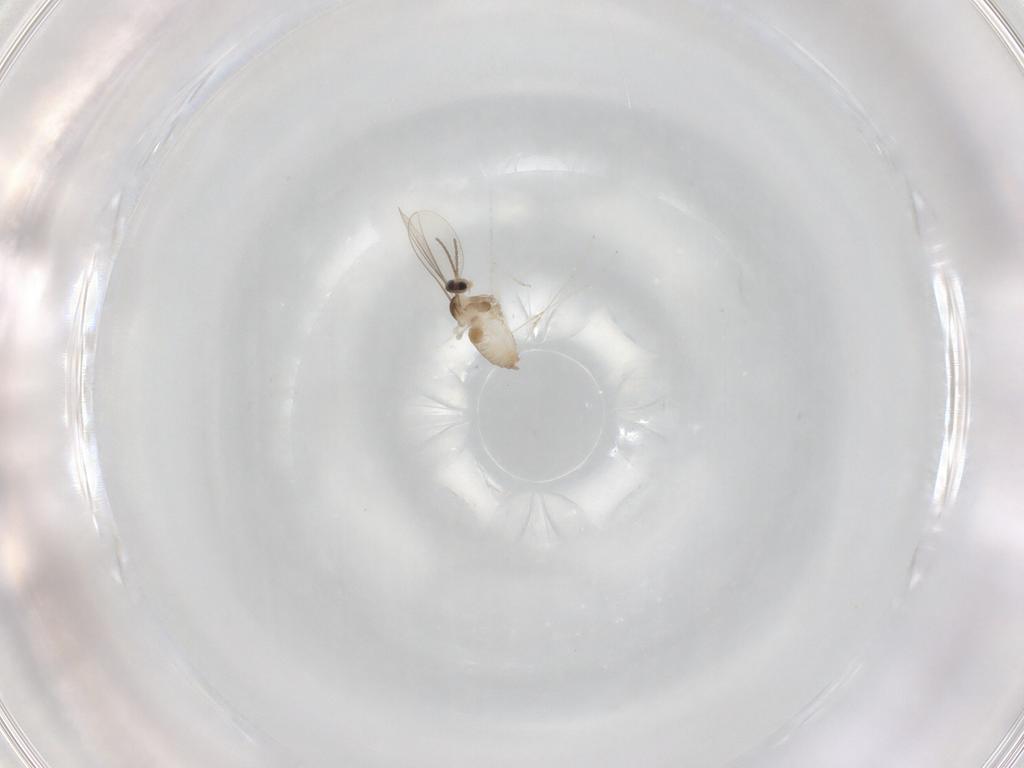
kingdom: Animalia
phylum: Arthropoda
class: Insecta
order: Diptera
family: Cecidomyiidae
